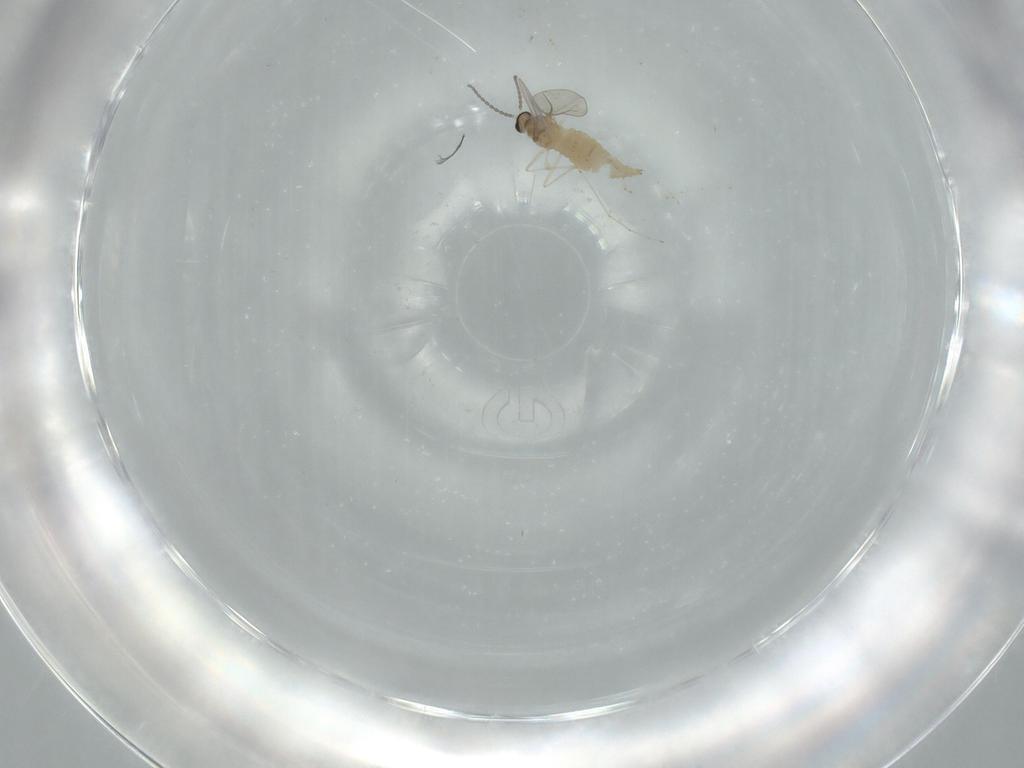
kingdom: Animalia
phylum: Arthropoda
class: Insecta
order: Diptera
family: Cecidomyiidae
